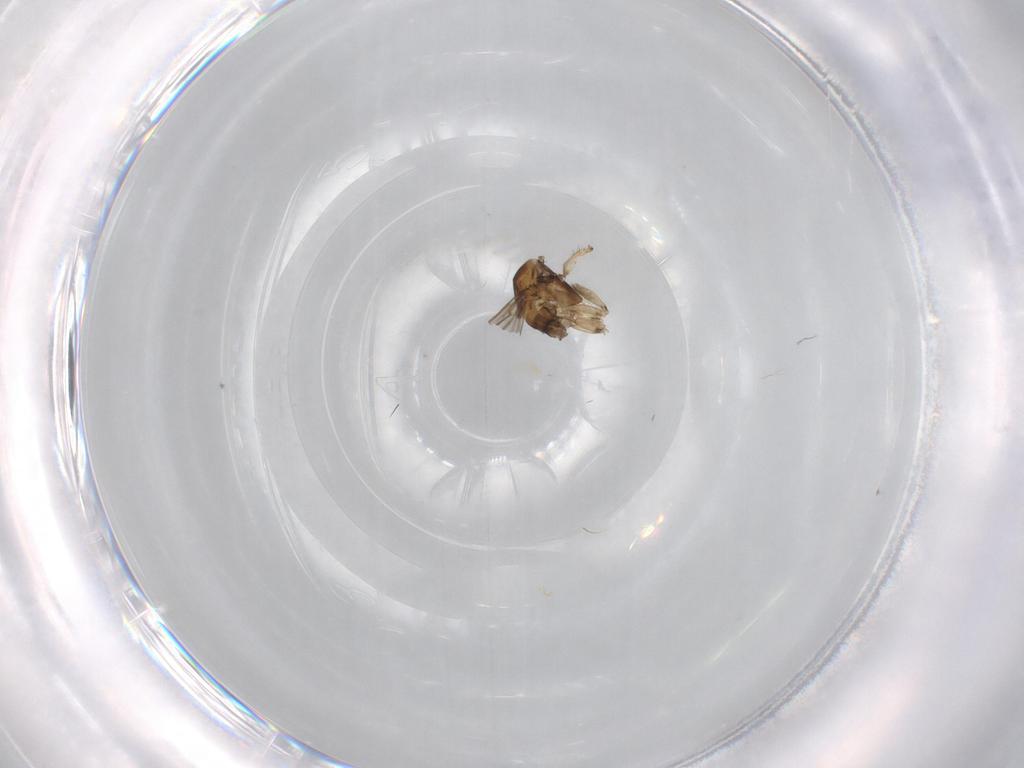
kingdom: Animalia
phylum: Arthropoda
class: Insecta
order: Diptera
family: Sciaridae
